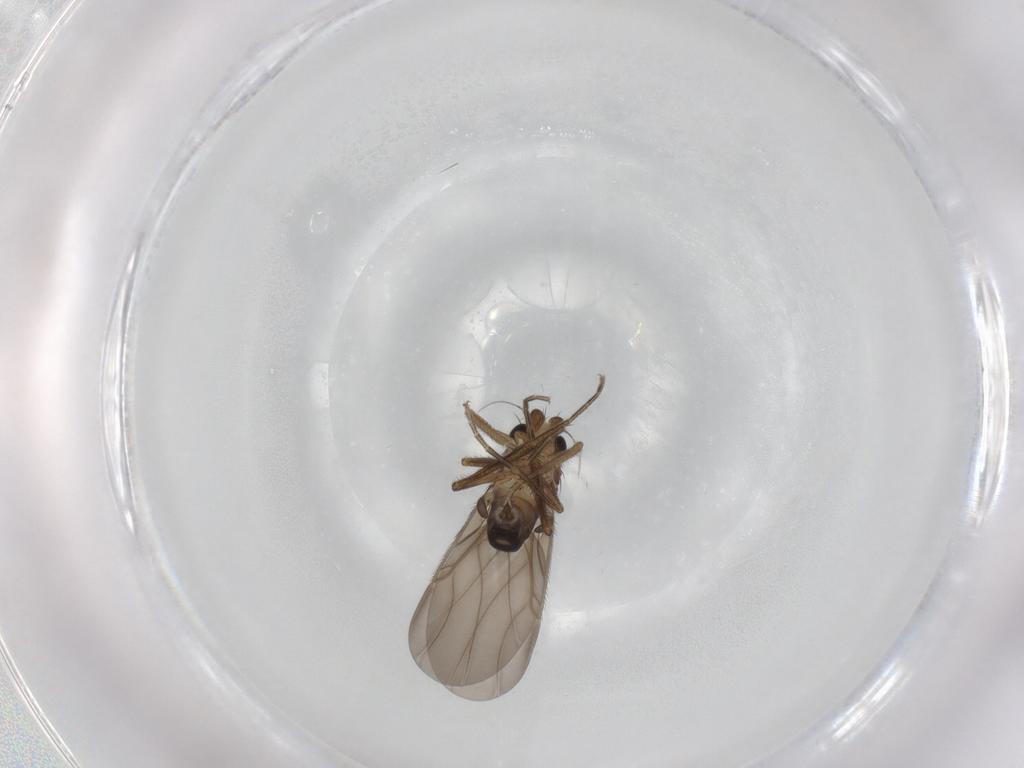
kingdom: Animalia
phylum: Arthropoda
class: Insecta
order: Diptera
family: Phoridae
